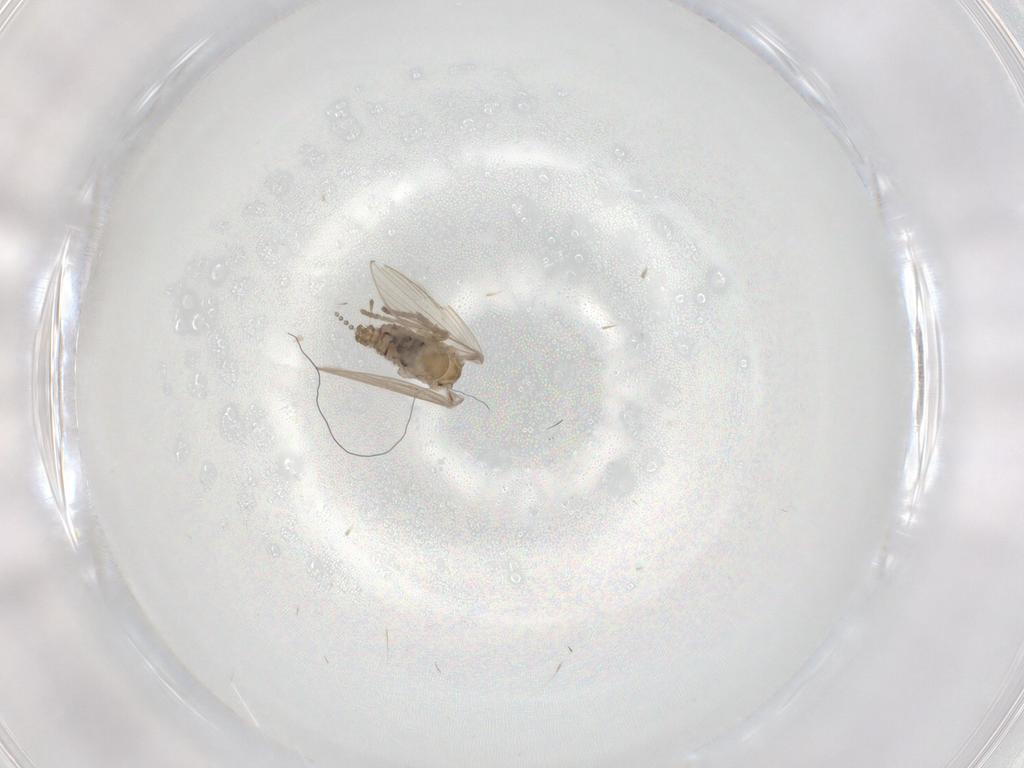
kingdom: Animalia
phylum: Arthropoda
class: Insecta
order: Diptera
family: Psychodidae
